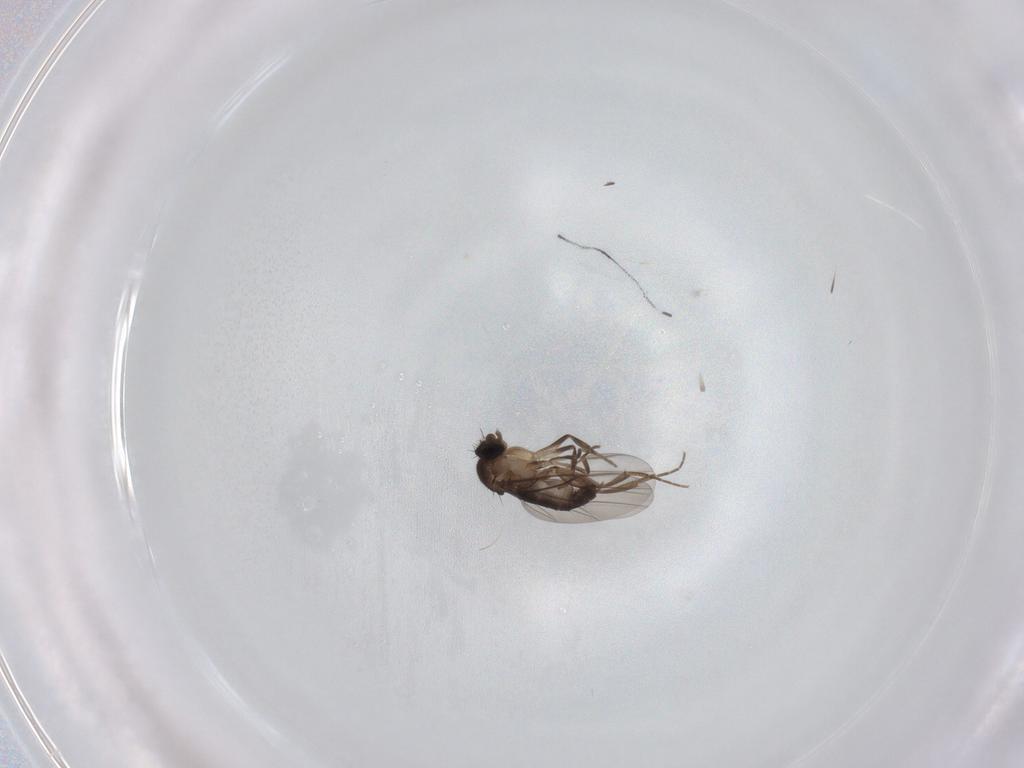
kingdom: Animalia
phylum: Arthropoda
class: Insecta
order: Diptera
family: Phoridae
